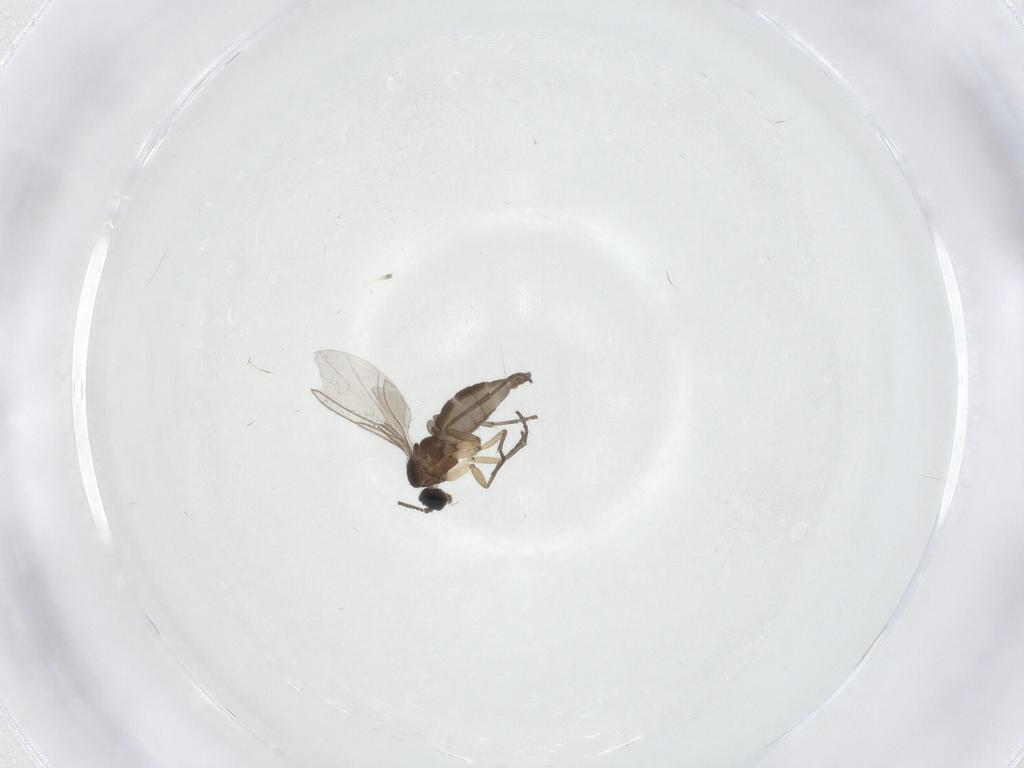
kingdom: Animalia
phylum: Arthropoda
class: Insecta
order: Diptera
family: Sciaridae
